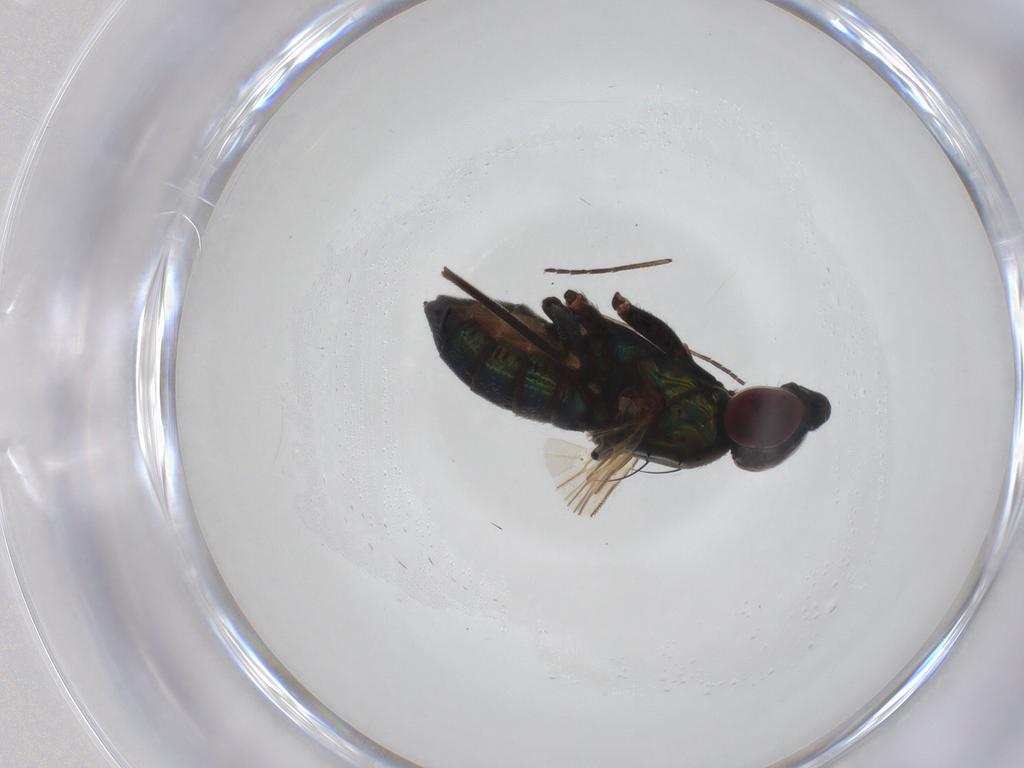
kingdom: Animalia
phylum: Arthropoda
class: Insecta
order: Diptera
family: Dolichopodidae
